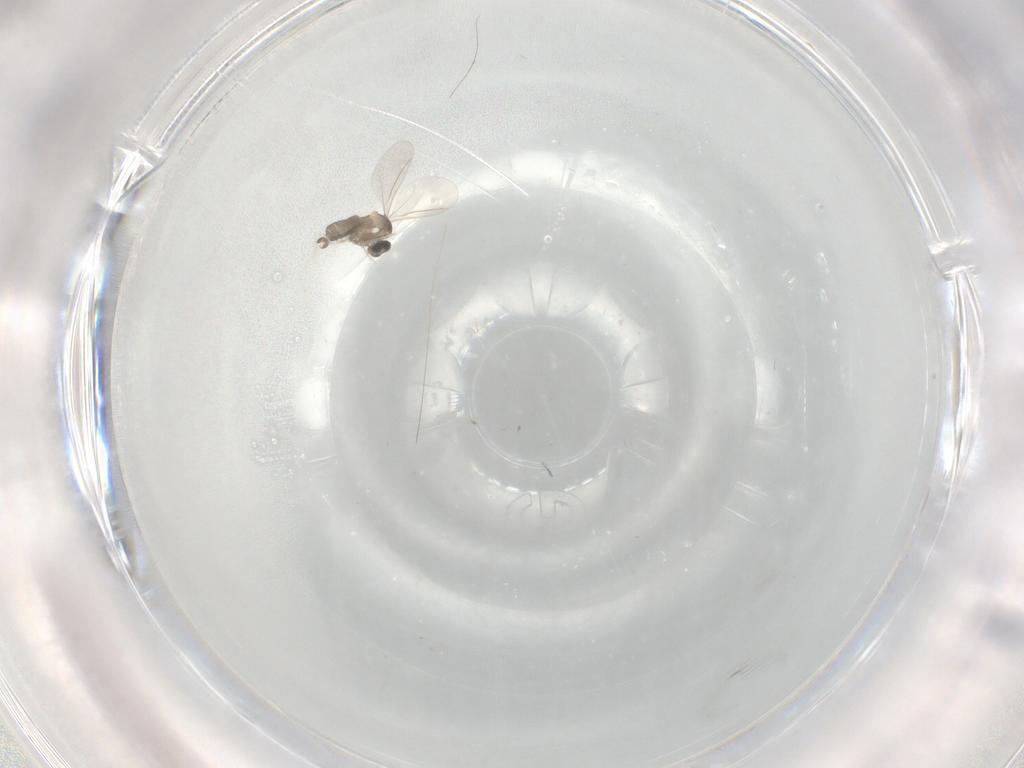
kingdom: Animalia
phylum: Arthropoda
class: Insecta
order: Diptera
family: Cecidomyiidae
